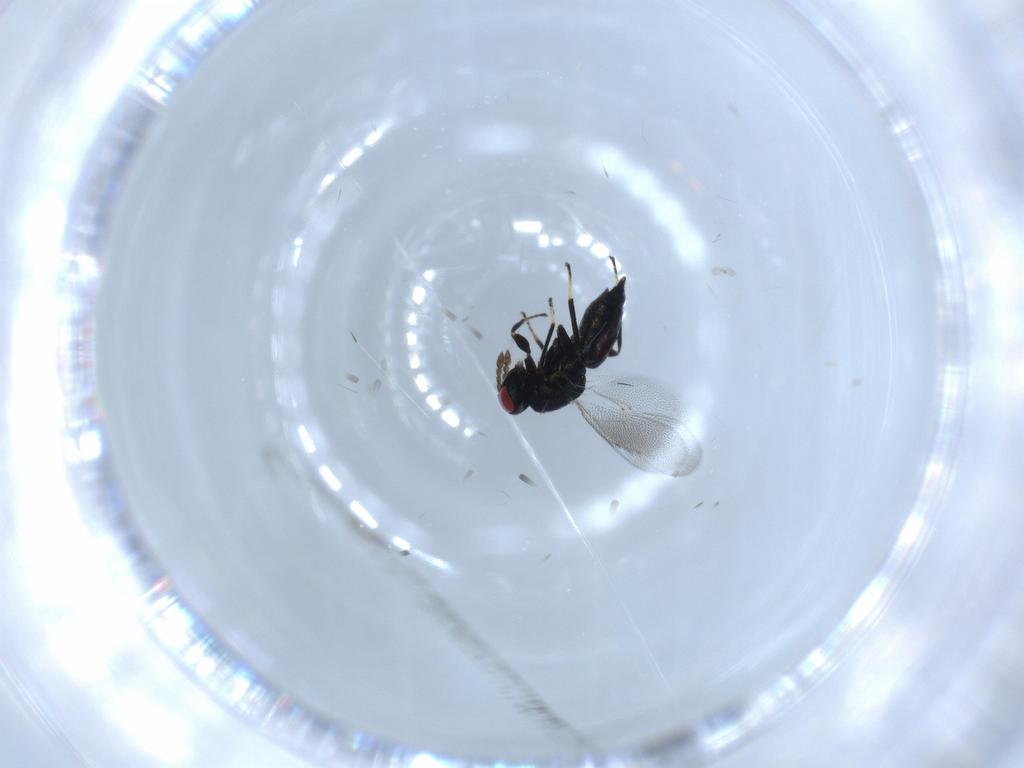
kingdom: Animalia
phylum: Arthropoda
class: Insecta
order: Hymenoptera
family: Eulophidae
